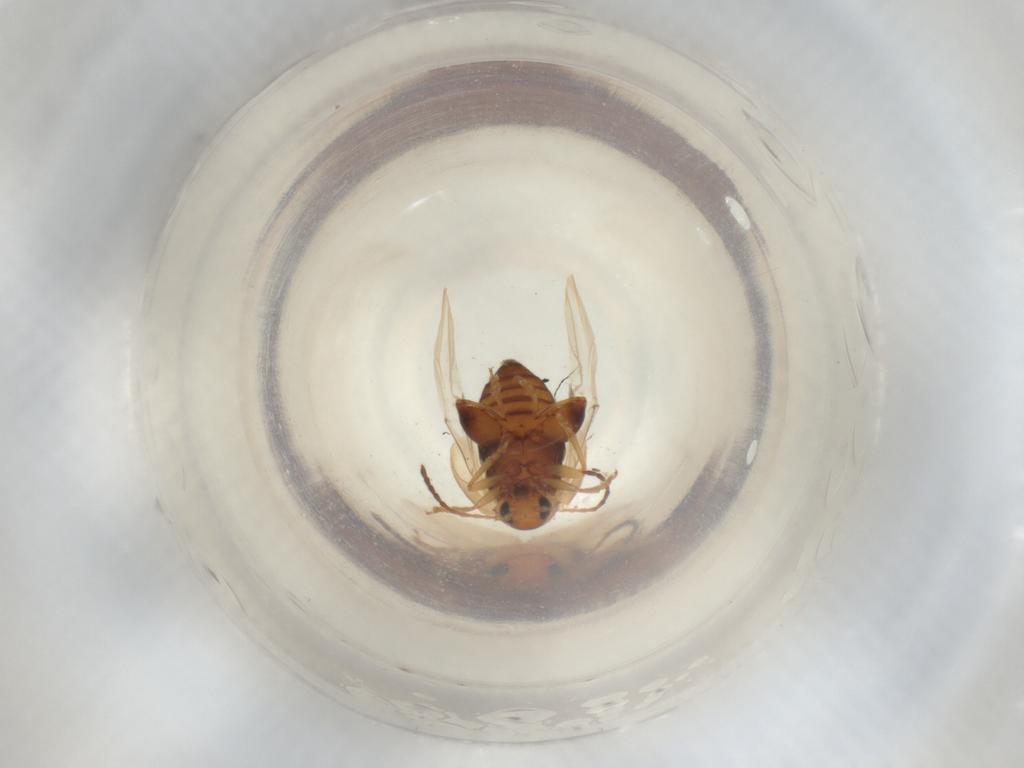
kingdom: Animalia
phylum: Arthropoda
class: Insecta
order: Coleoptera
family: Chrysomelidae
